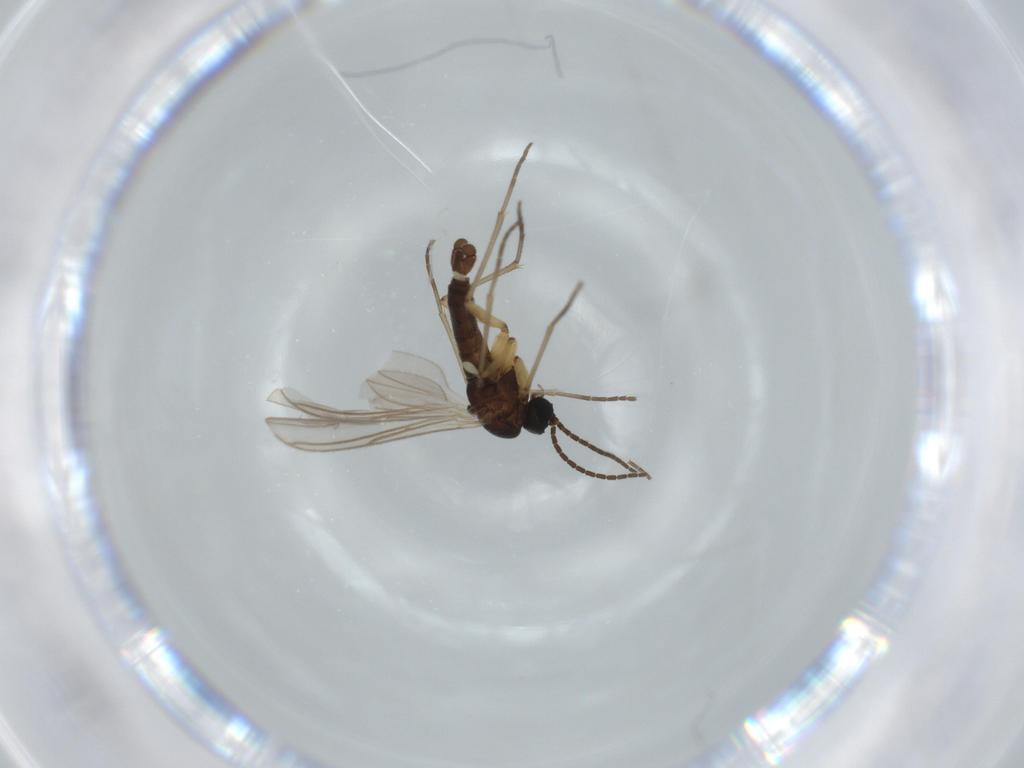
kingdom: Animalia
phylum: Arthropoda
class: Insecta
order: Diptera
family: Sciaridae
